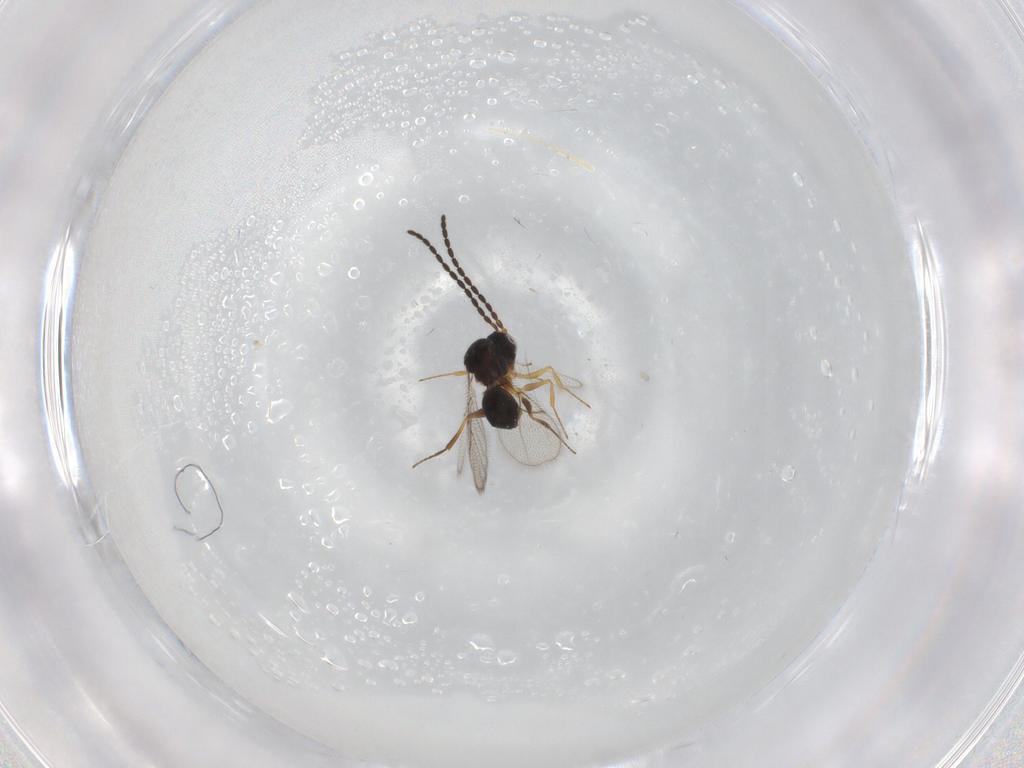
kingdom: Animalia
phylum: Arthropoda
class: Insecta
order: Hymenoptera
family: Figitidae
